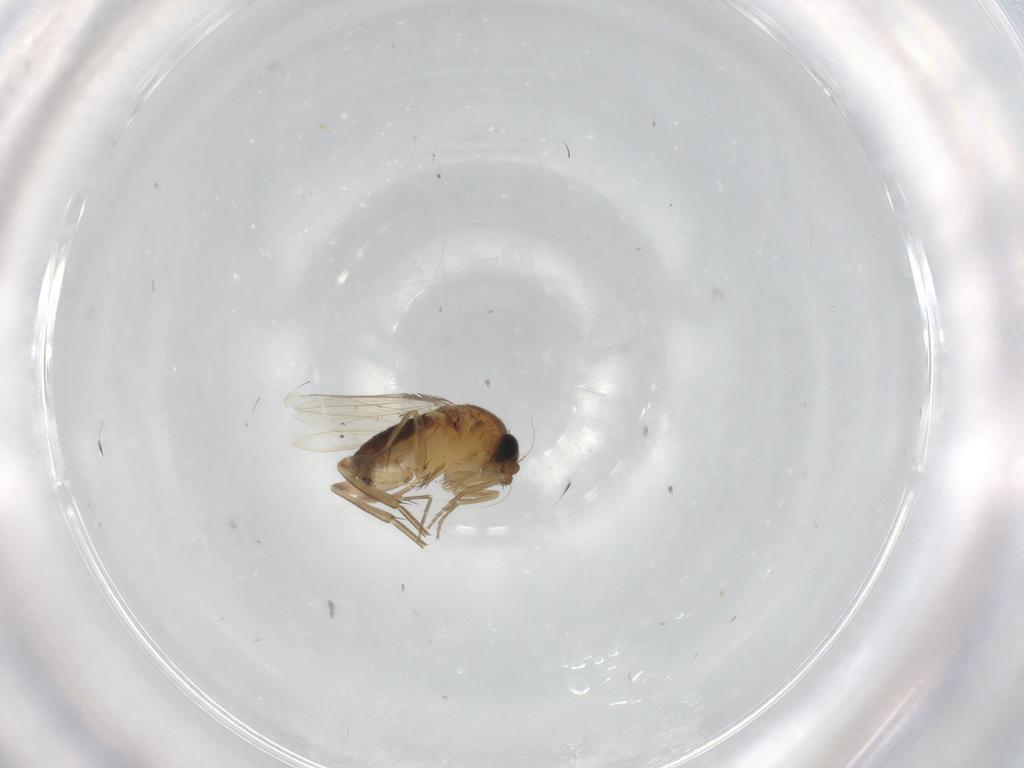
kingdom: Animalia
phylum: Arthropoda
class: Insecta
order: Diptera
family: Phoridae
